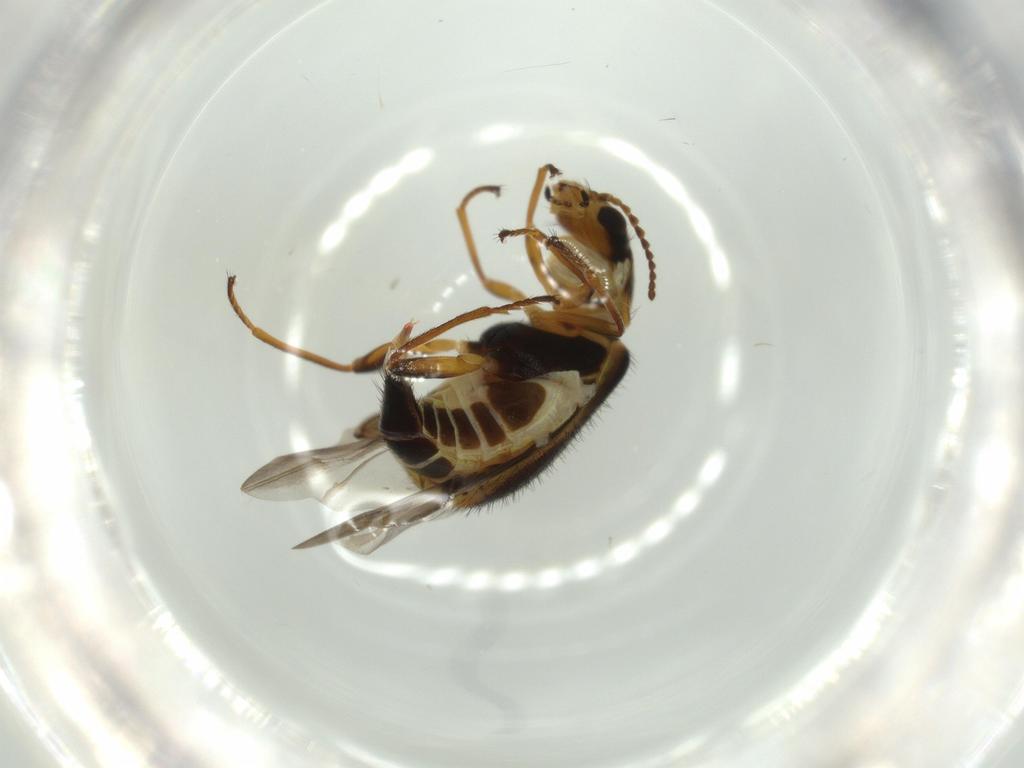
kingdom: Animalia
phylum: Arthropoda
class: Insecta
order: Coleoptera
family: Melyridae
